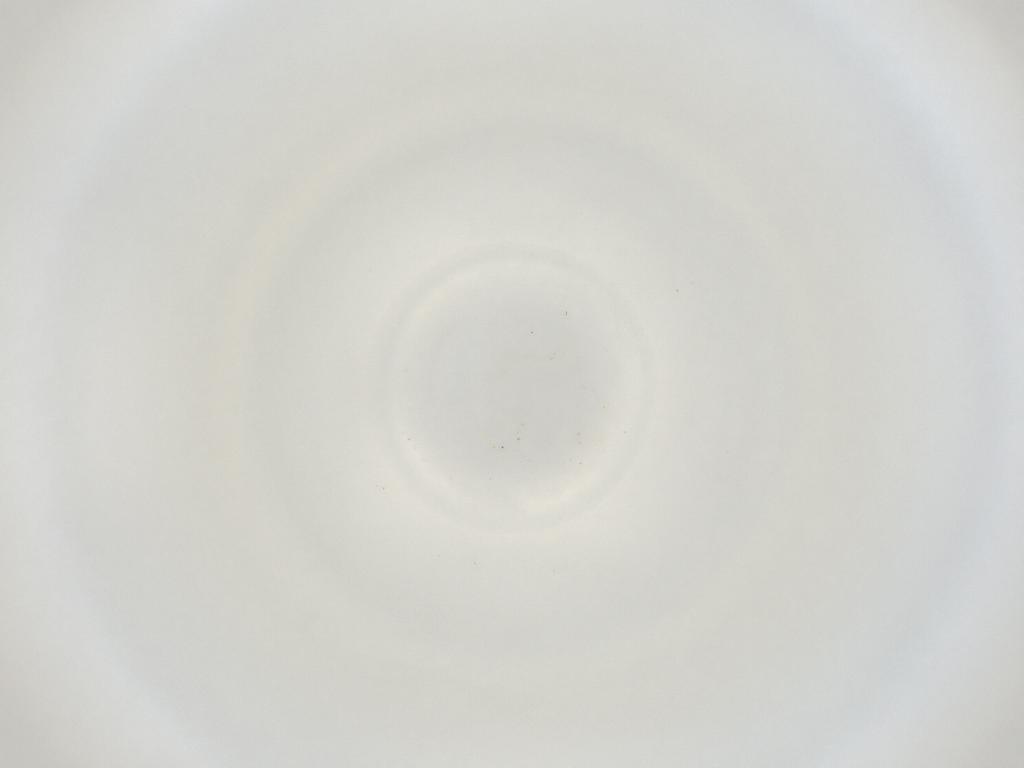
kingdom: Animalia
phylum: Arthropoda
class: Insecta
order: Diptera
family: Cecidomyiidae
